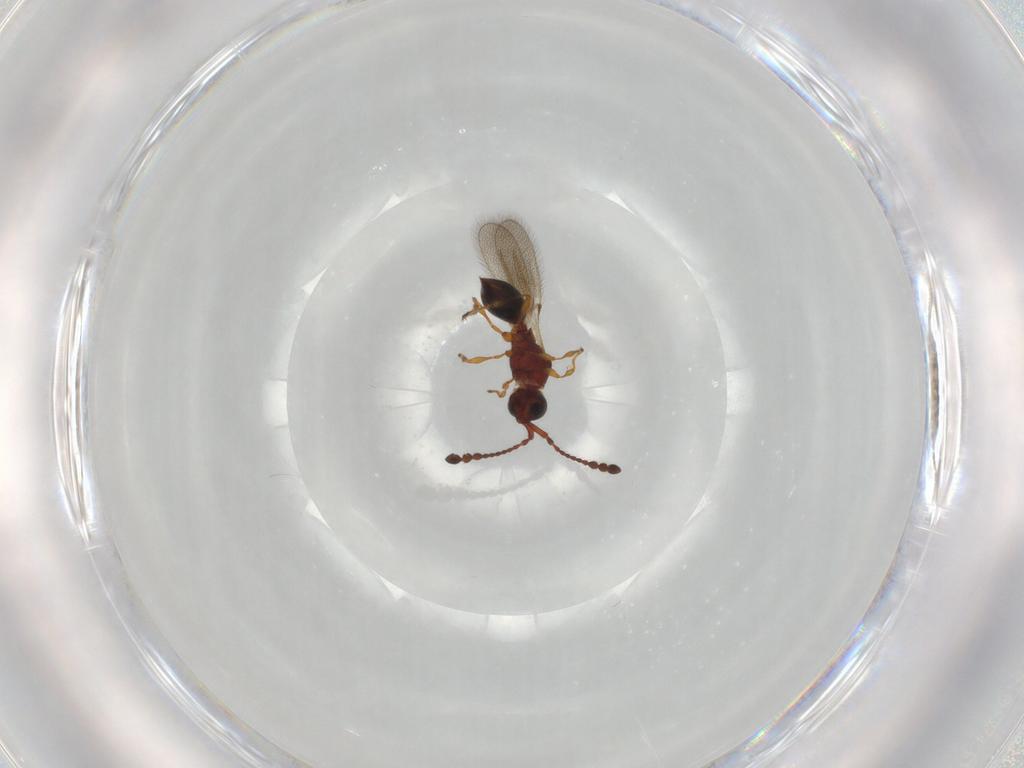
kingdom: Animalia
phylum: Arthropoda
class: Insecta
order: Hymenoptera
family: Diapriidae
